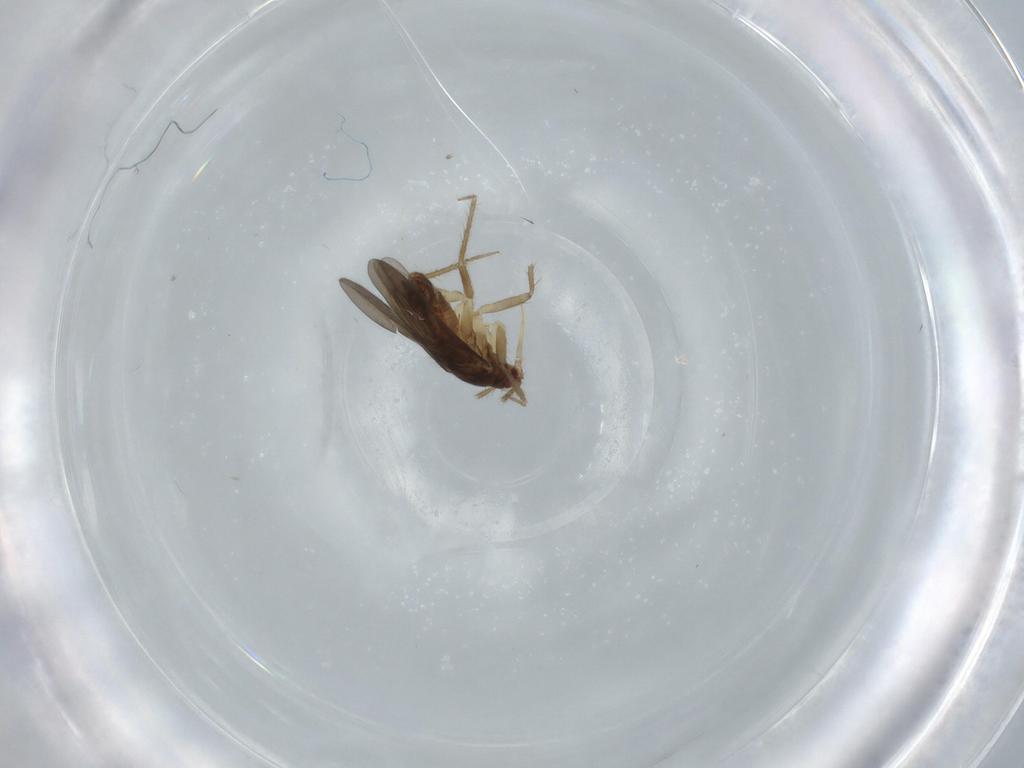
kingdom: Animalia
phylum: Arthropoda
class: Insecta
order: Hemiptera
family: Ceratocombidae
